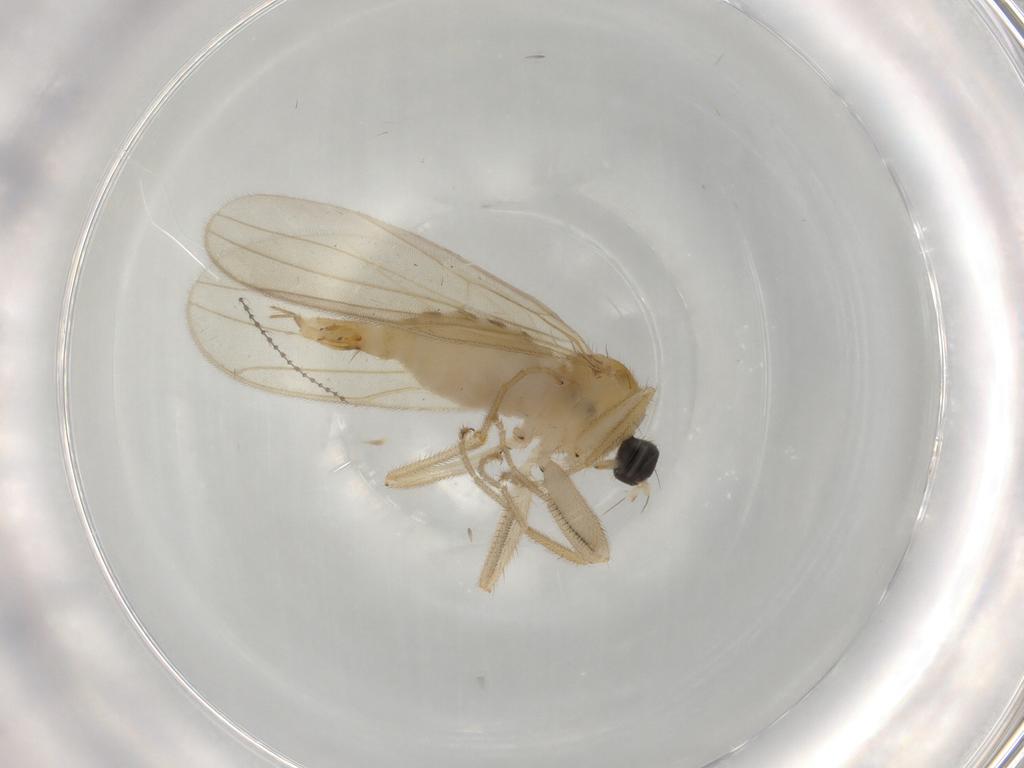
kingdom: Animalia
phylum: Arthropoda
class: Insecta
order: Diptera
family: Hybotidae
